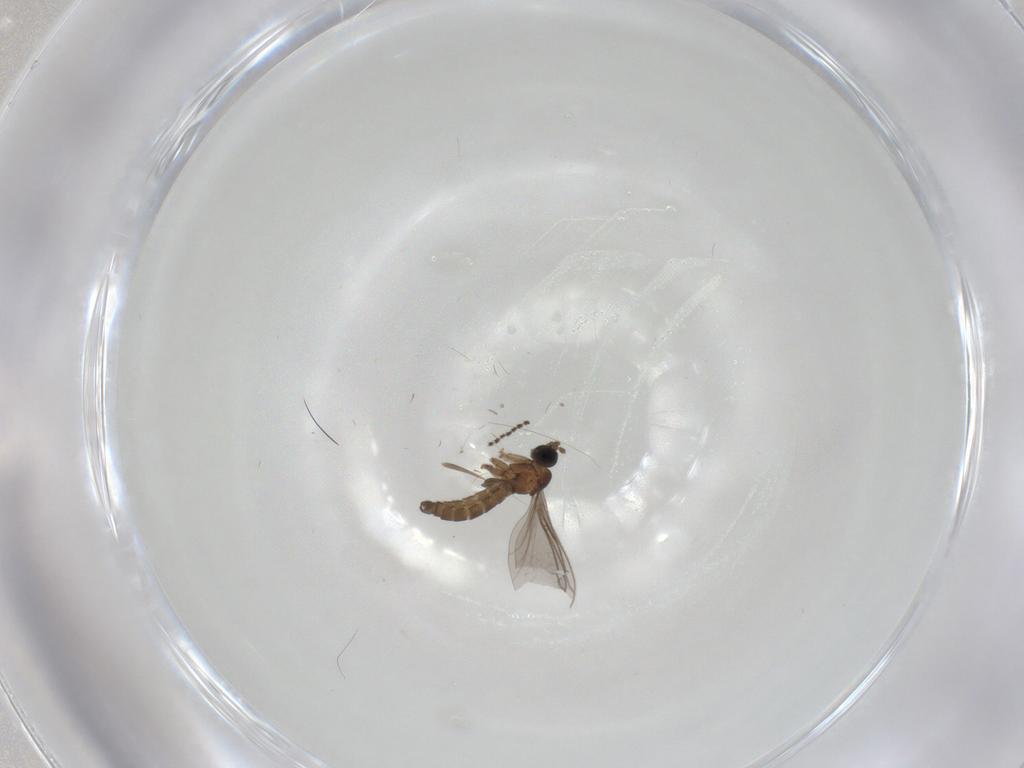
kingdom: Animalia
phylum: Arthropoda
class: Insecta
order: Diptera
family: Sciaridae
